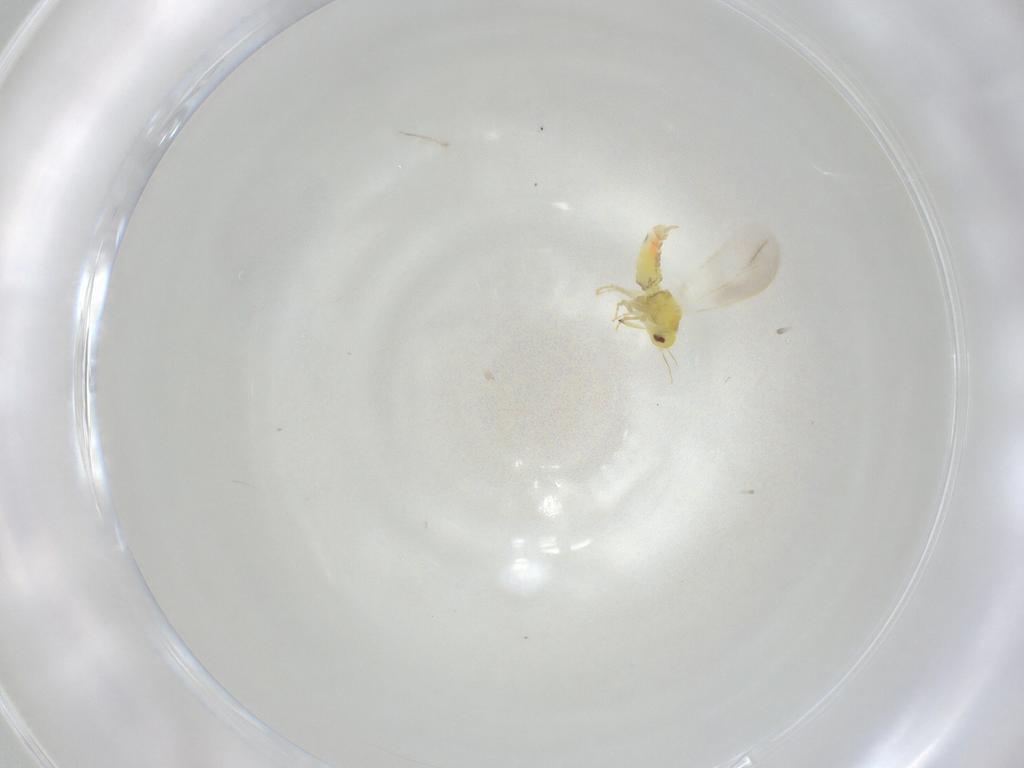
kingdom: Animalia
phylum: Arthropoda
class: Insecta
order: Hemiptera
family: Aleyrodidae
